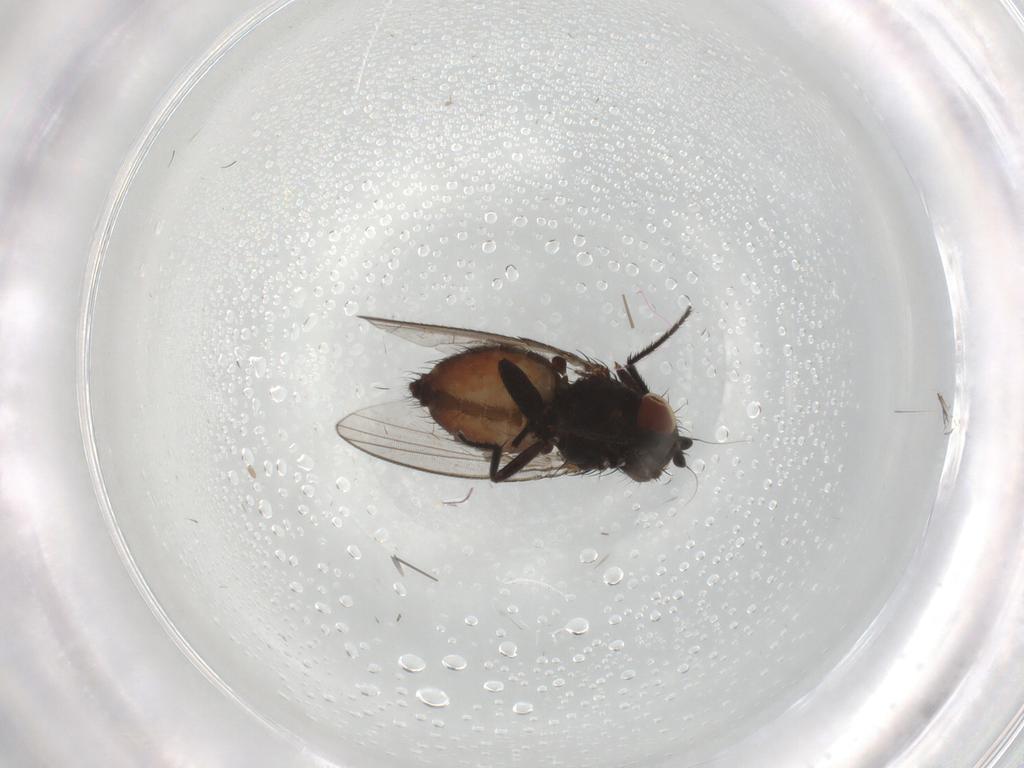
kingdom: Animalia
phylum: Arthropoda
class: Insecta
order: Diptera
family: Milichiidae
